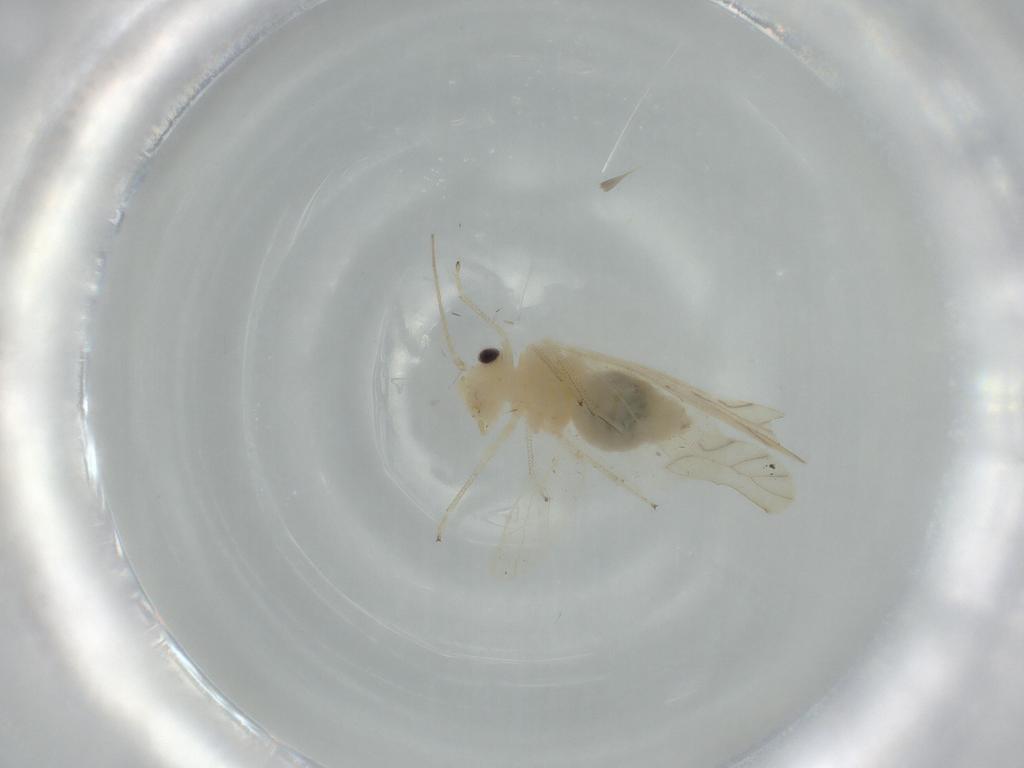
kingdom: Animalia
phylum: Arthropoda
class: Insecta
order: Psocodea
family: Caeciliusidae
